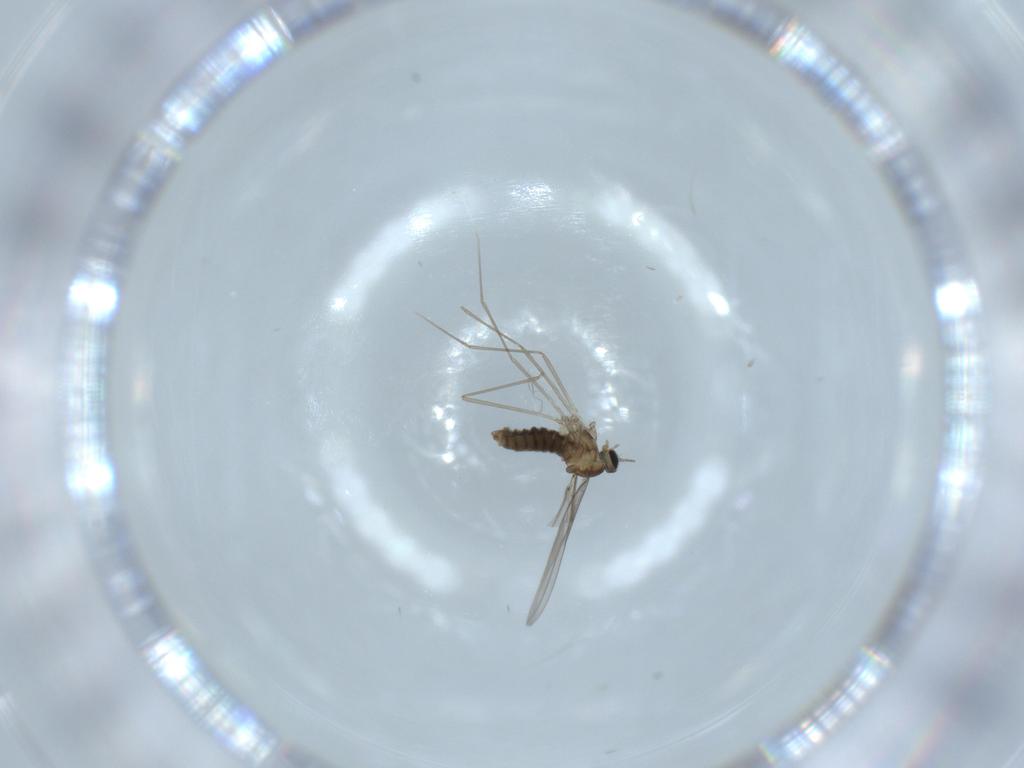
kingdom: Animalia
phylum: Arthropoda
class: Insecta
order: Diptera
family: Cecidomyiidae
